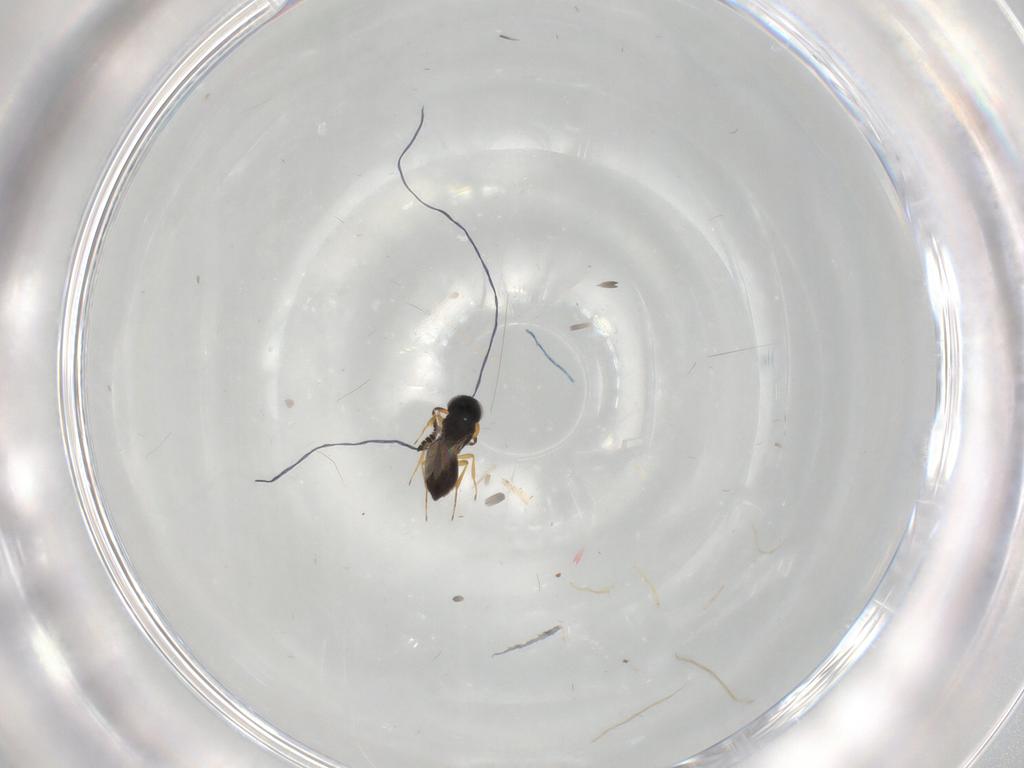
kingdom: Animalia
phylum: Arthropoda
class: Insecta
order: Hymenoptera
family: Scelionidae
